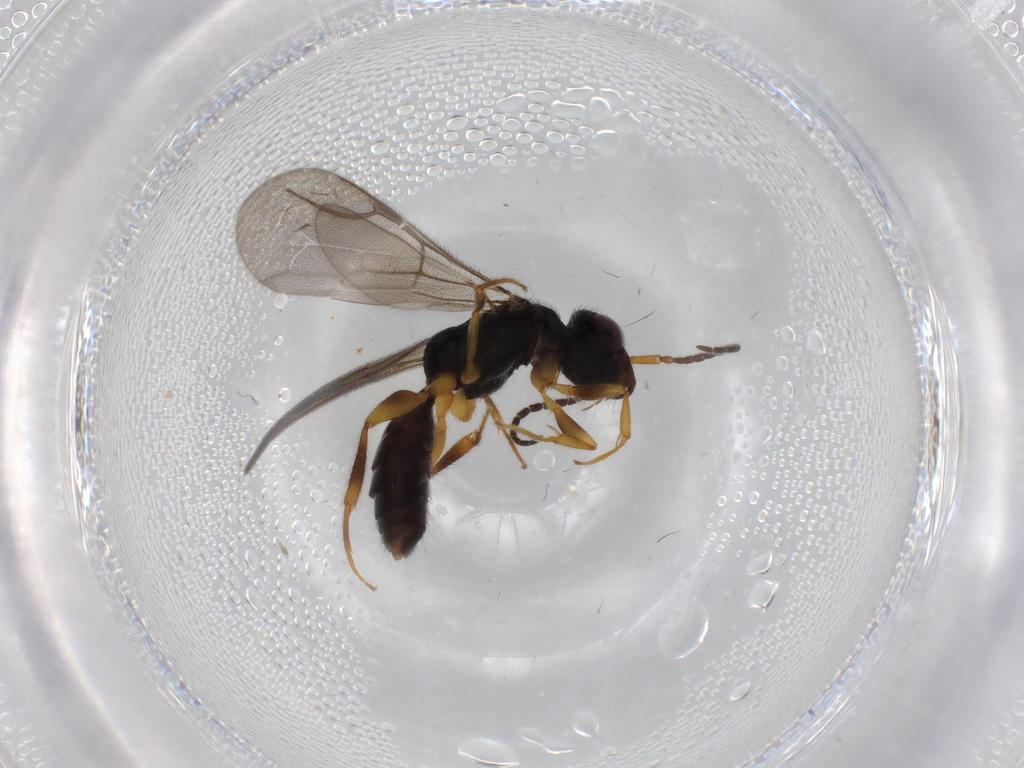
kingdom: Animalia
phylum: Arthropoda
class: Insecta
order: Hymenoptera
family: Bethylidae
